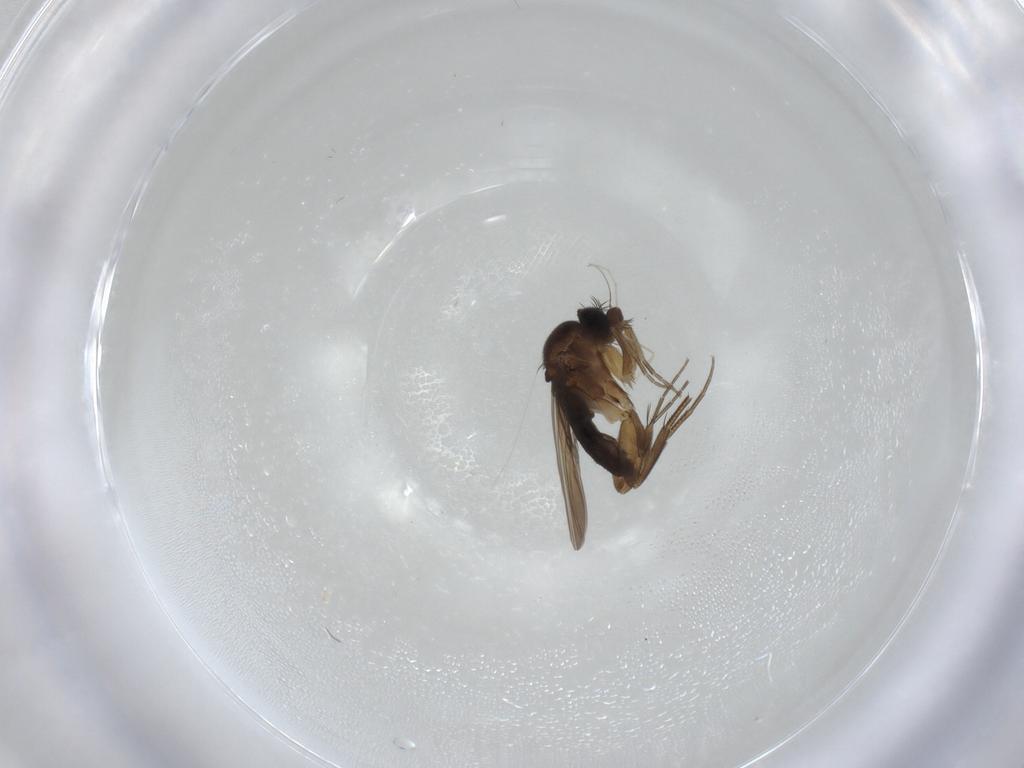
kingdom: Animalia
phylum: Arthropoda
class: Insecta
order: Diptera
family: Phoridae
